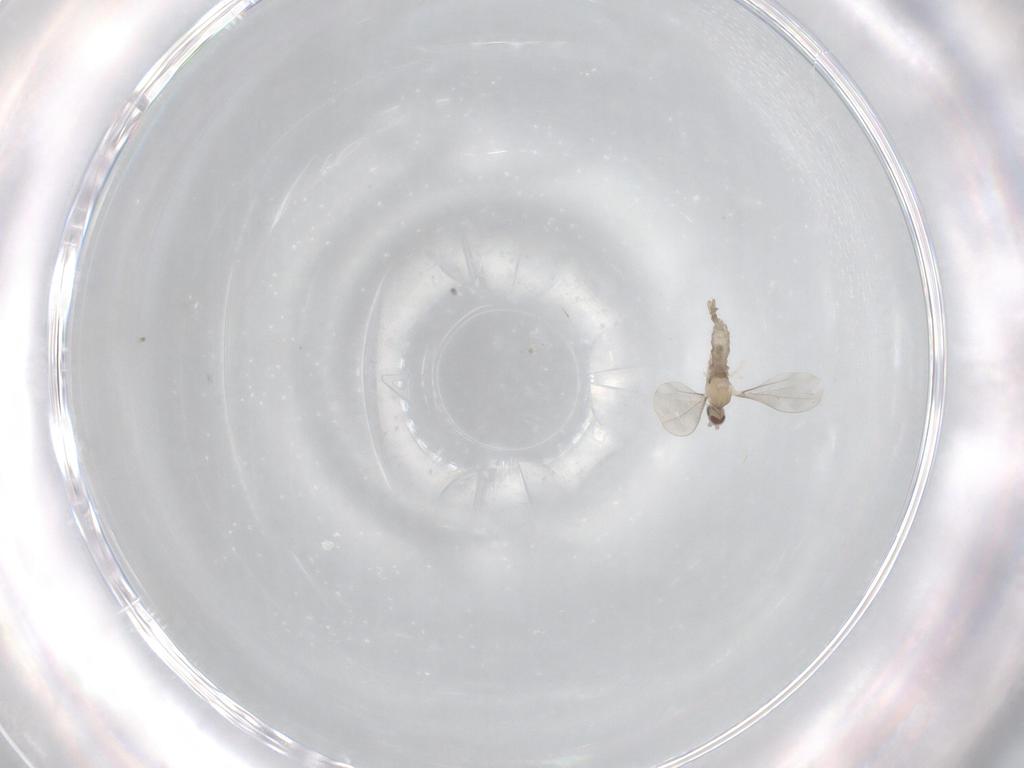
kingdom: Animalia
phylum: Arthropoda
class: Insecta
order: Diptera
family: Cecidomyiidae
